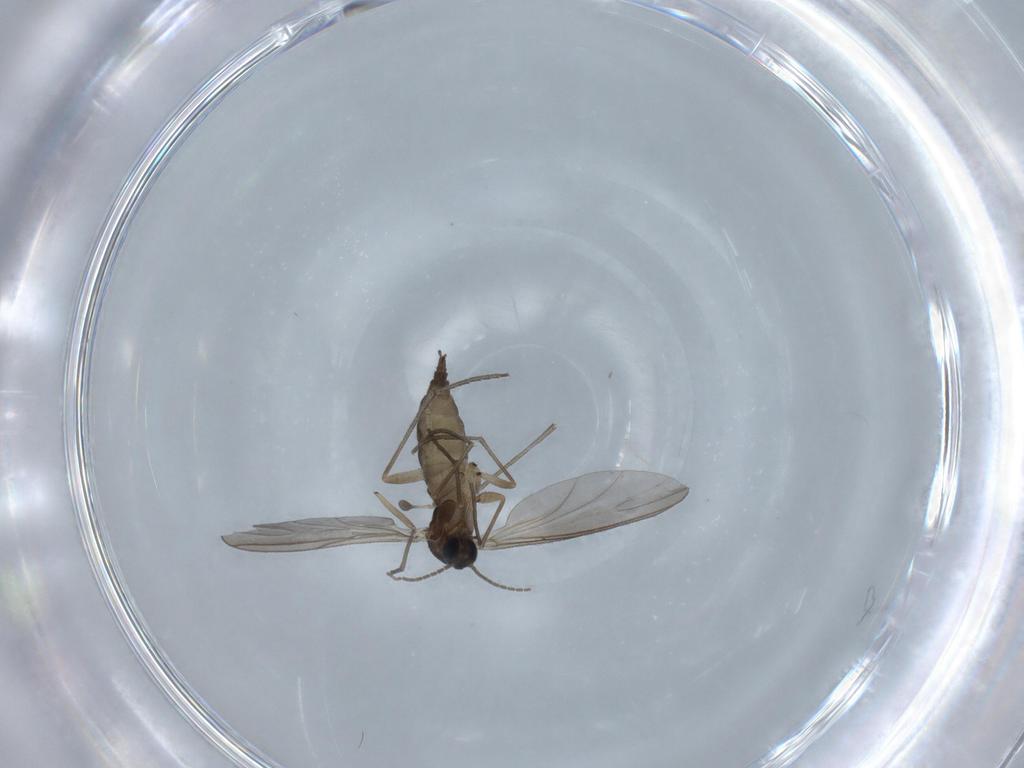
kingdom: Animalia
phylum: Arthropoda
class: Insecta
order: Diptera
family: Sciaridae
